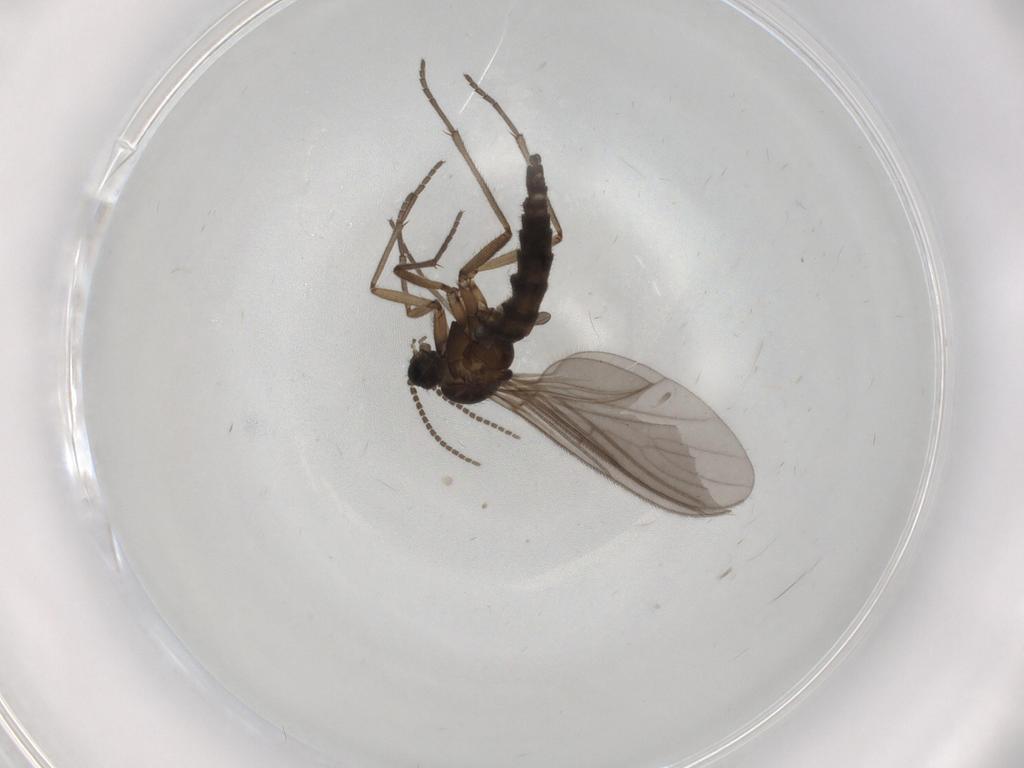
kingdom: Animalia
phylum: Arthropoda
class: Insecta
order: Diptera
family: Sciaridae
